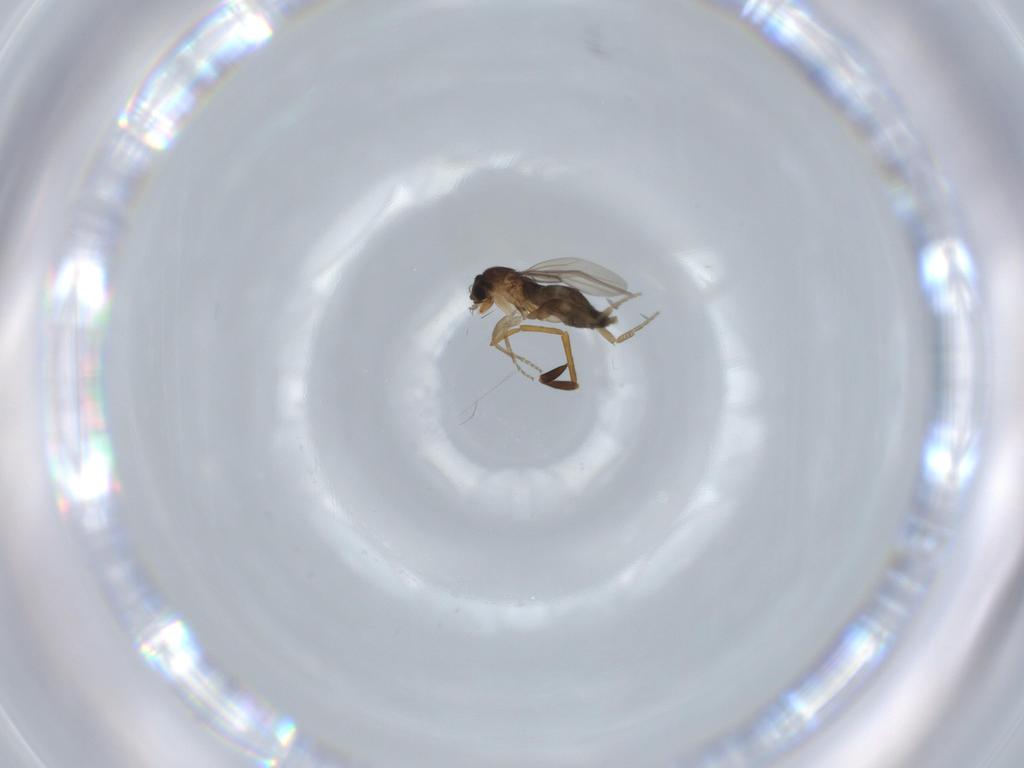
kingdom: Animalia
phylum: Arthropoda
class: Insecta
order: Diptera
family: Phoridae
